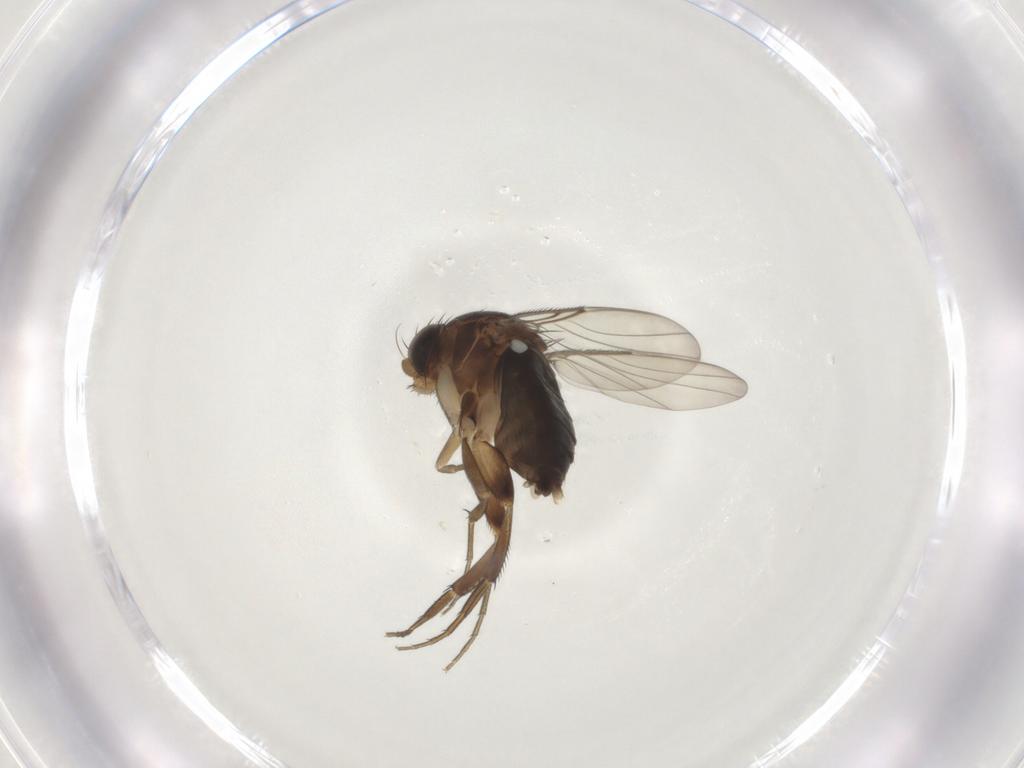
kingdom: Animalia
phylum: Arthropoda
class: Insecta
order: Diptera
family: Phoridae
